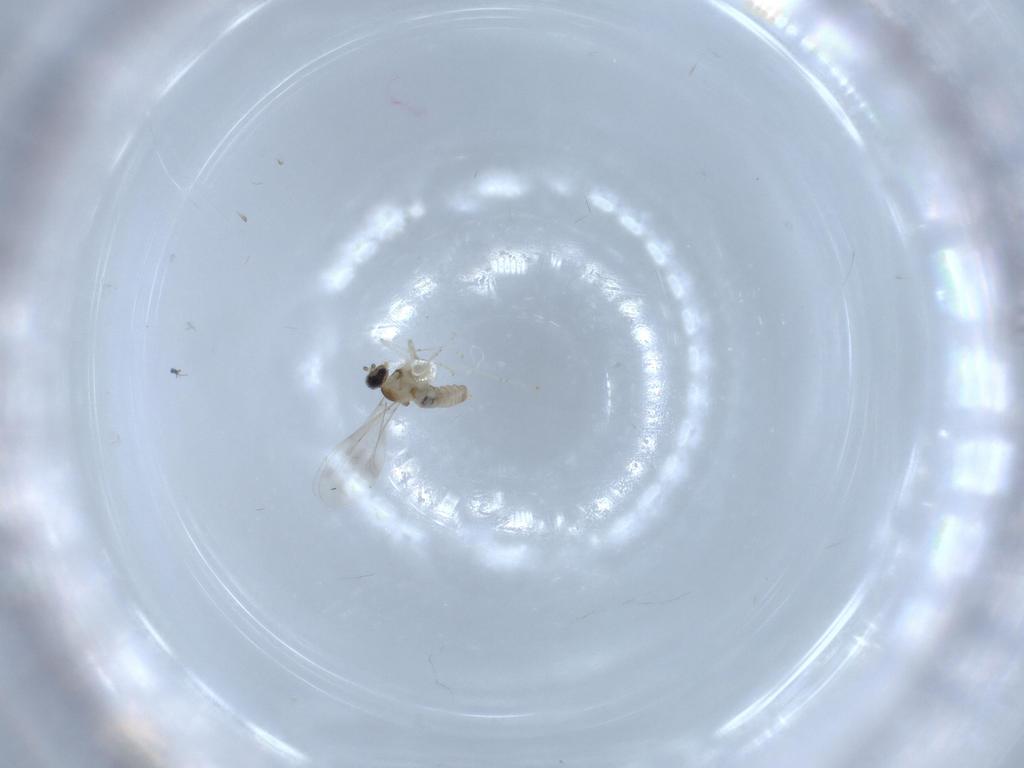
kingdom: Animalia
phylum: Arthropoda
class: Insecta
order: Diptera
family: Cecidomyiidae
